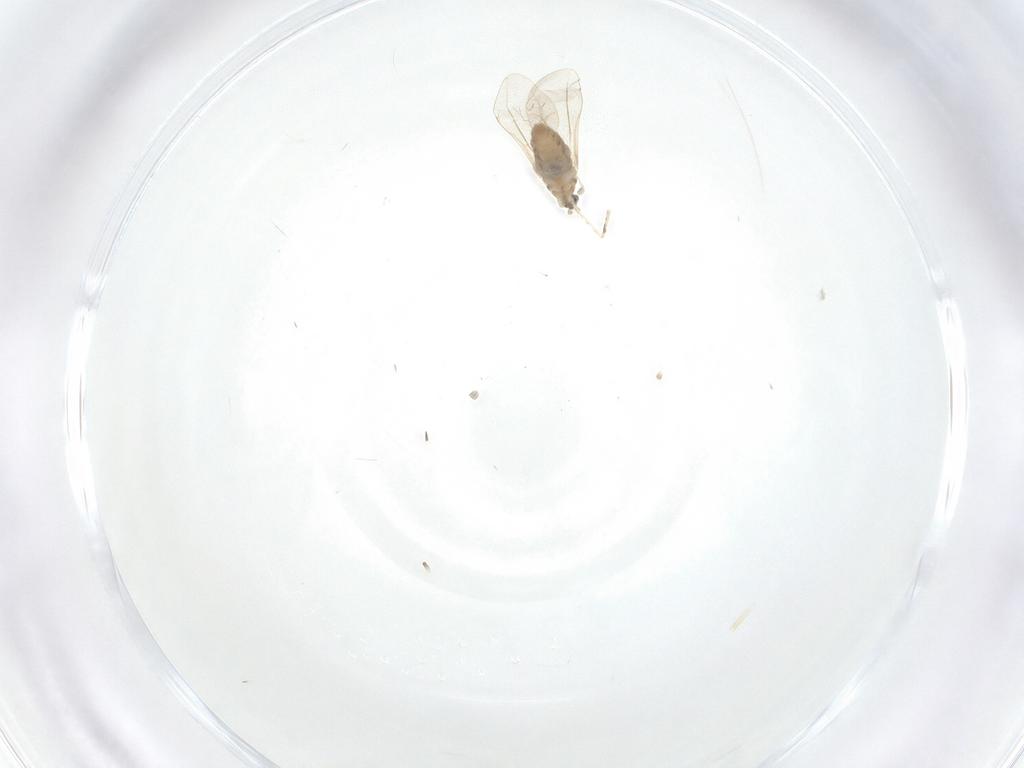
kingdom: Animalia
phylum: Arthropoda
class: Insecta
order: Diptera
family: Cecidomyiidae
